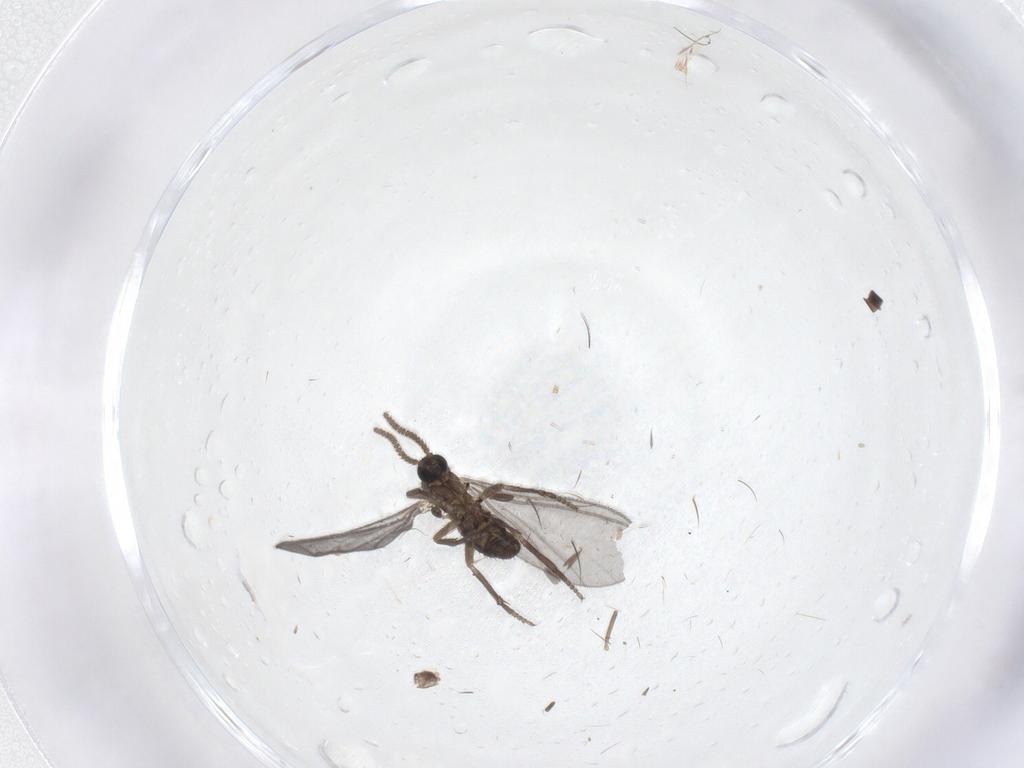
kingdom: Animalia
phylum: Arthropoda
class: Insecta
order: Diptera
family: Sciaridae
